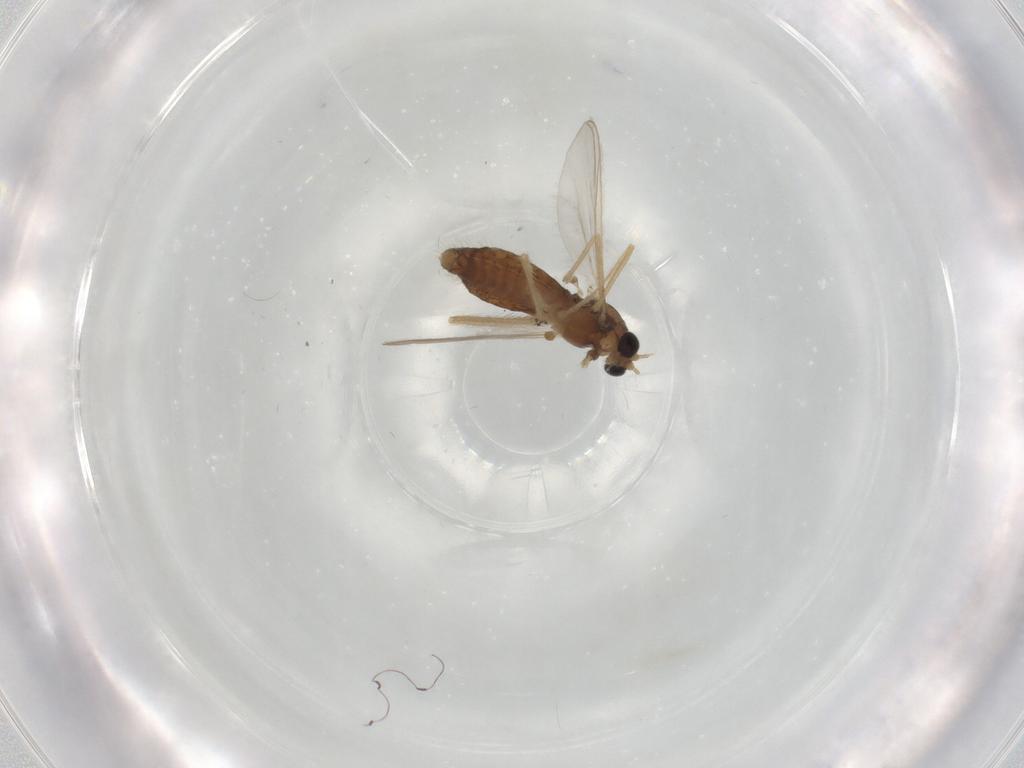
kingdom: Animalia
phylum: Arthropoda
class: Insecta
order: Diptera
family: Chironomidae
